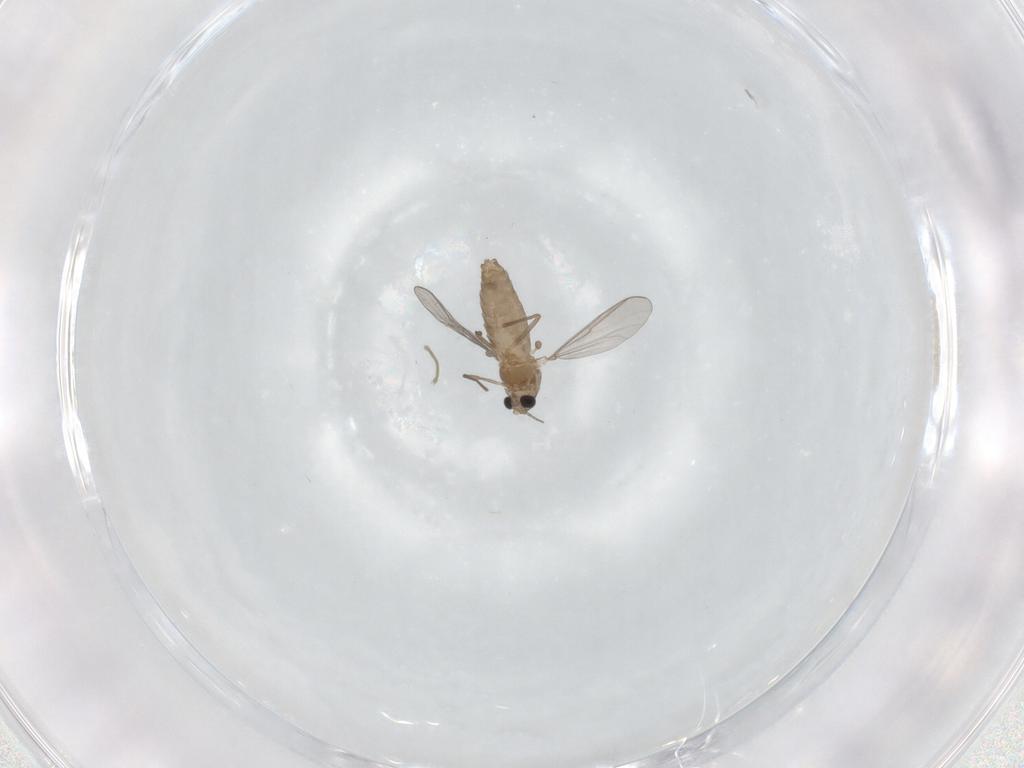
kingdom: Animalia
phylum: Arthropoda
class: Insecta
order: Diptera
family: Chironomidae
